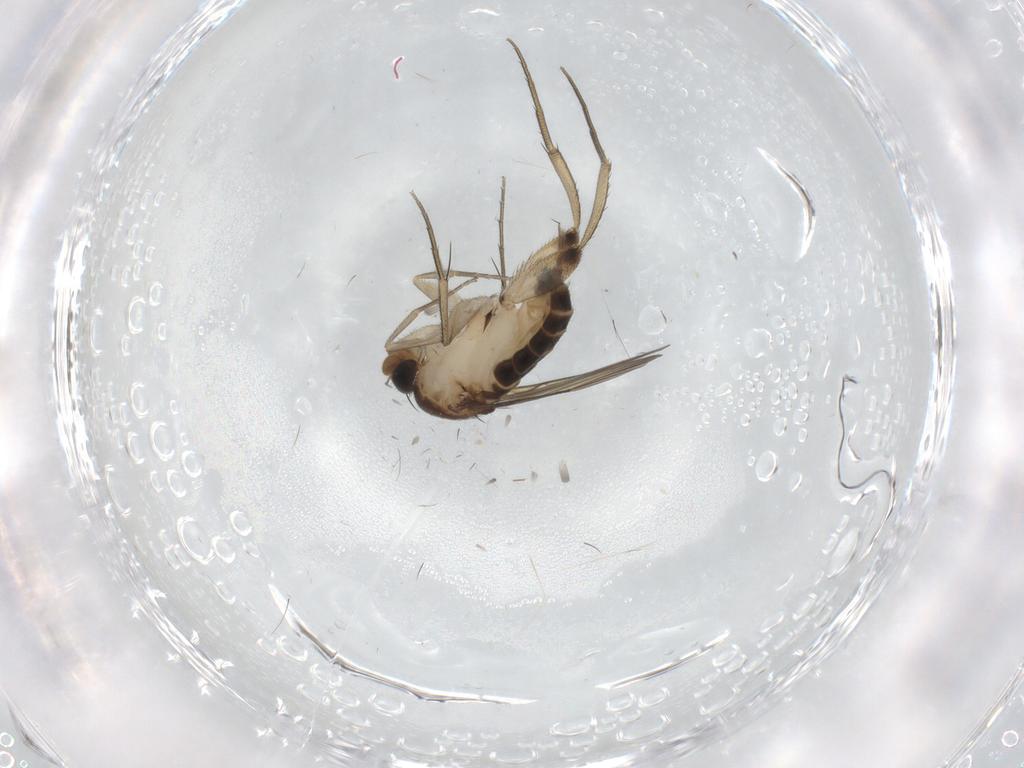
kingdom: Animalia
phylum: Arthropoda
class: Insecta
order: Diptera
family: Phoridae
